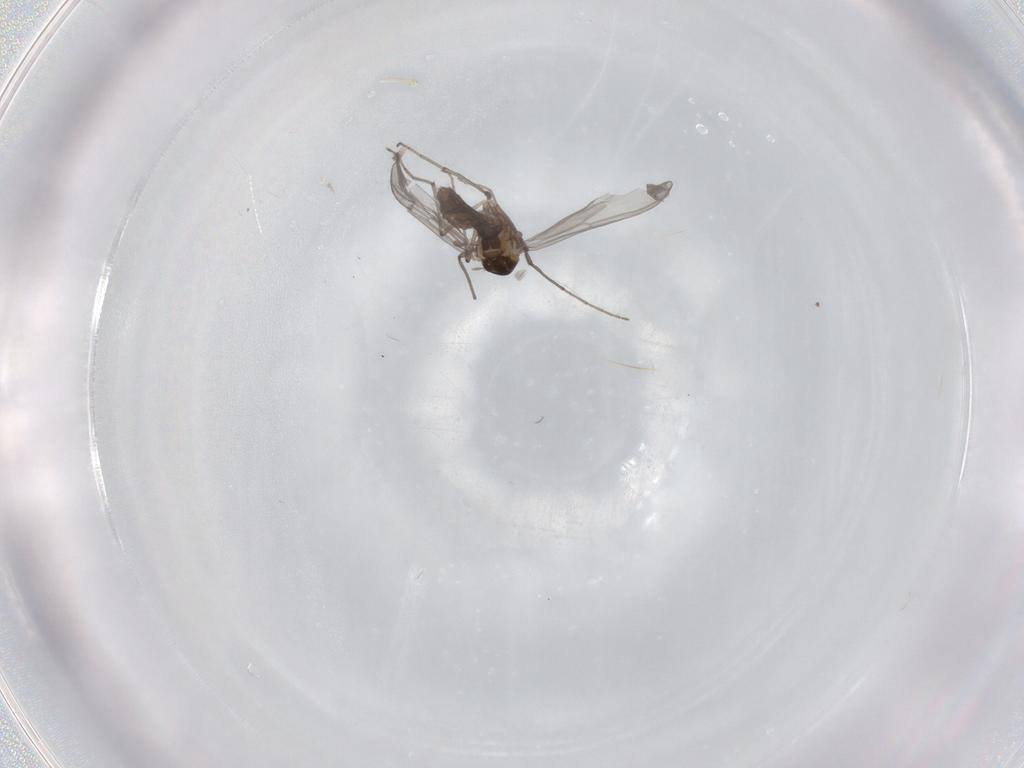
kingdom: Animalia
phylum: Arthropoda
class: Insecta
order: Diptera
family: Chironomidae
